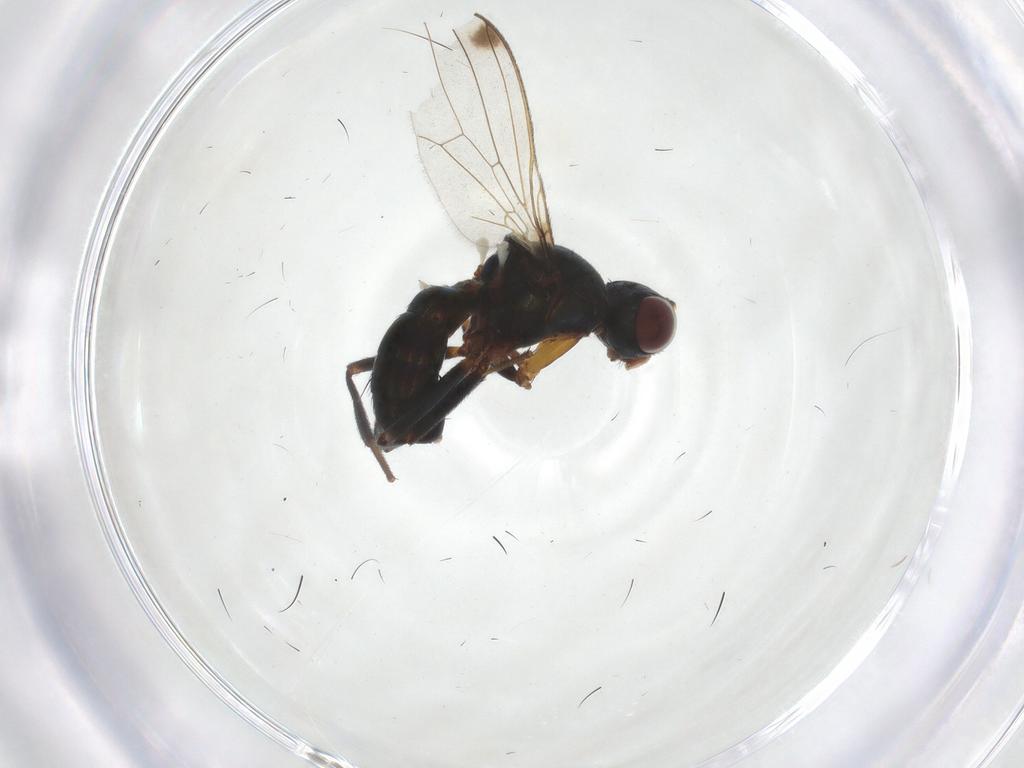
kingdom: Animalia
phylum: Arthropoda
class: Insecta
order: Diptera
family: Sepsidae
